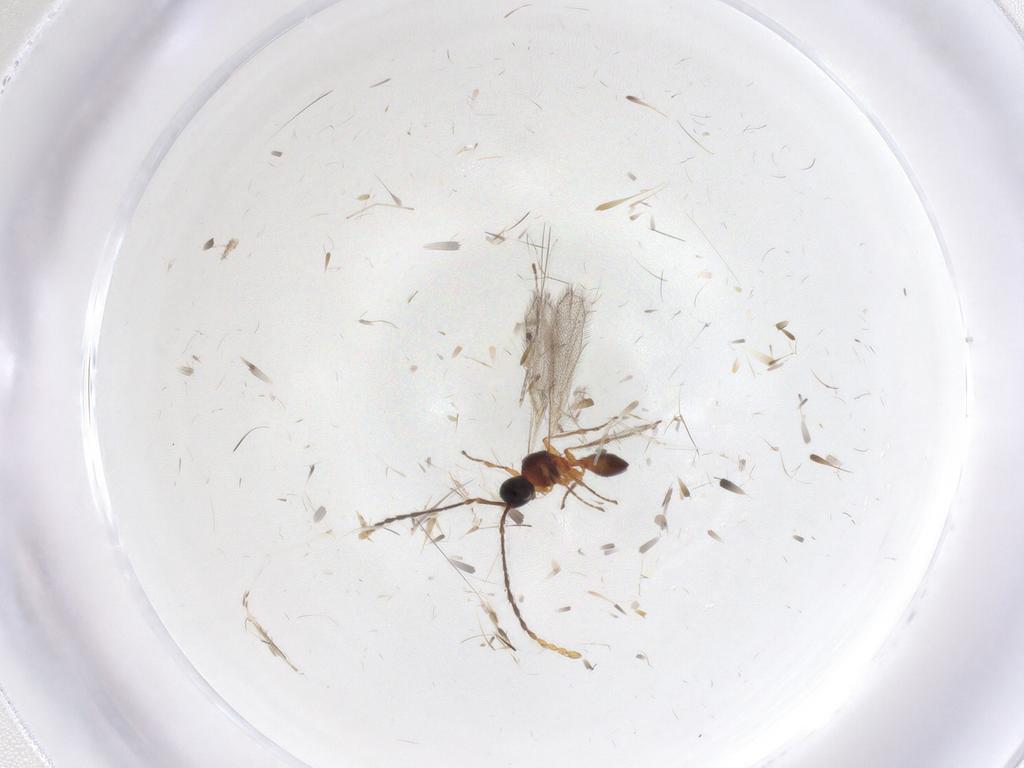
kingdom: Animalia
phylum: Arthropoda
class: Insecta
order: Hymenoptera
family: Diapriidae
